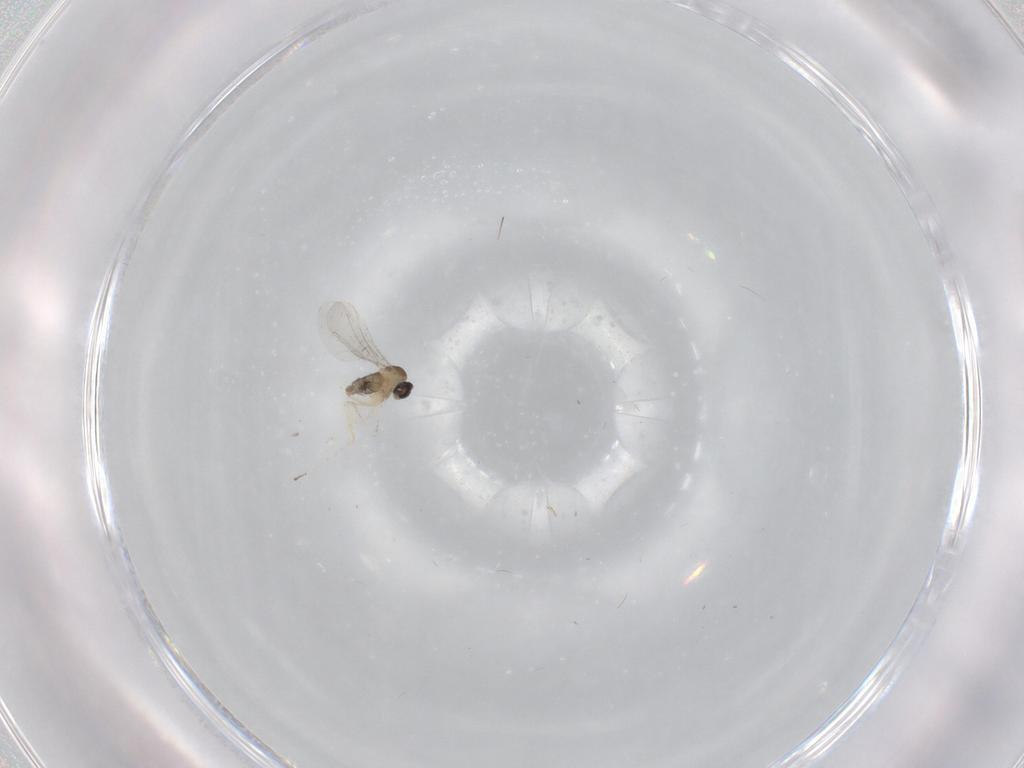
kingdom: Animalia
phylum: Arthropoda
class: Insecta
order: Diptera
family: Cecidomyiidae
